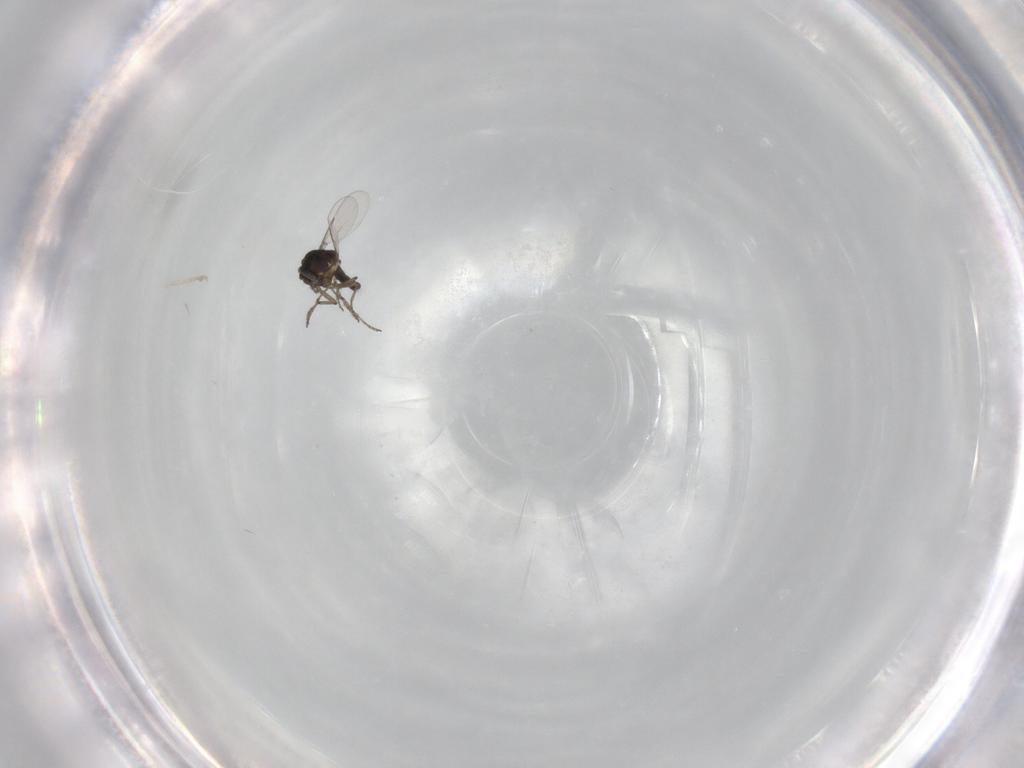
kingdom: Animalia
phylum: Arthropoda
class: Insecta
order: Diptera
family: Ceratopogonidae
